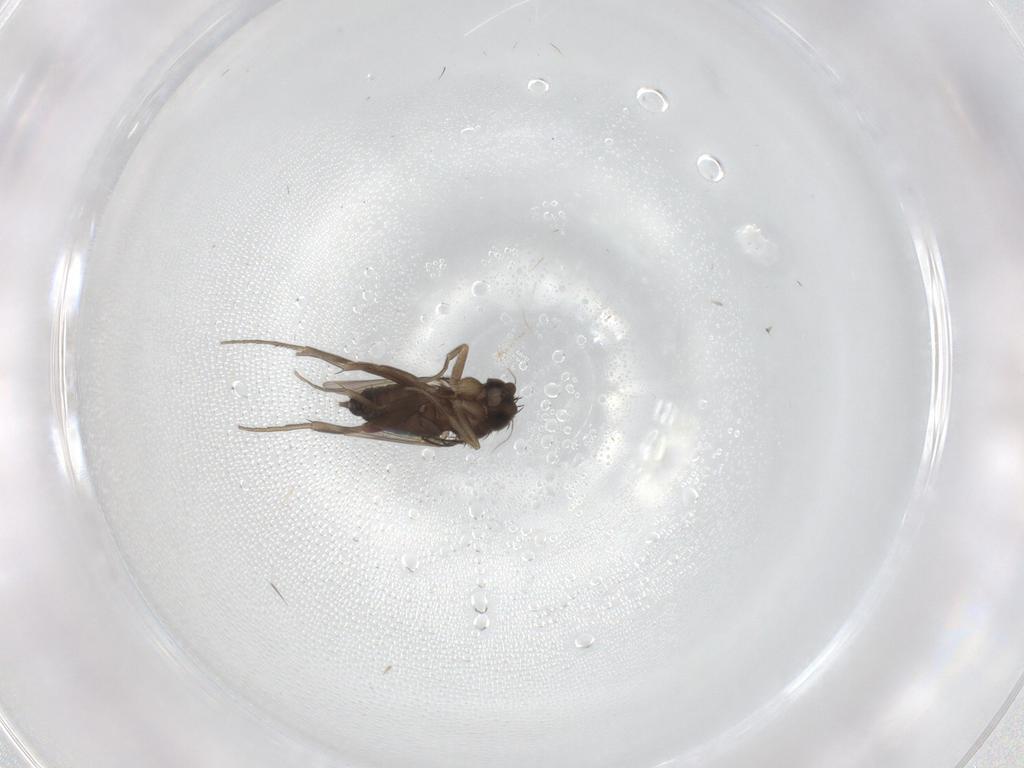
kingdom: Animalia
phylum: Arthropoda
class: Insecta
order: Diptera
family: Phoridae
